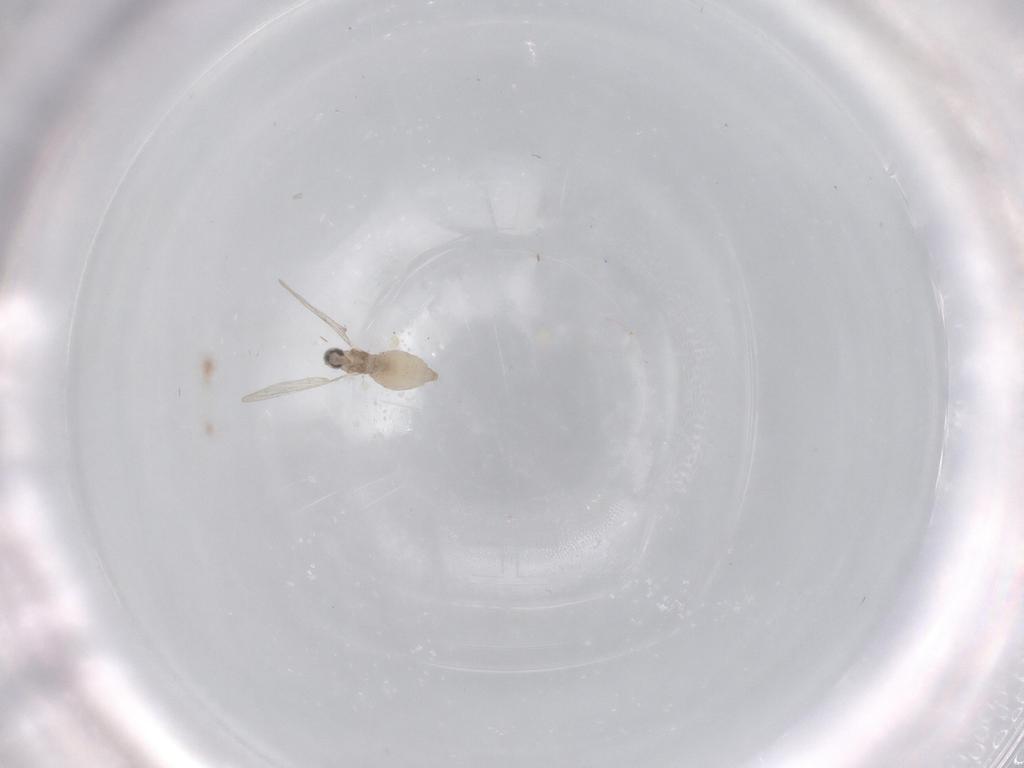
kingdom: Animalia
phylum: Arthropoda
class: Insecta
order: Diptera
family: Cecidomyiidae
